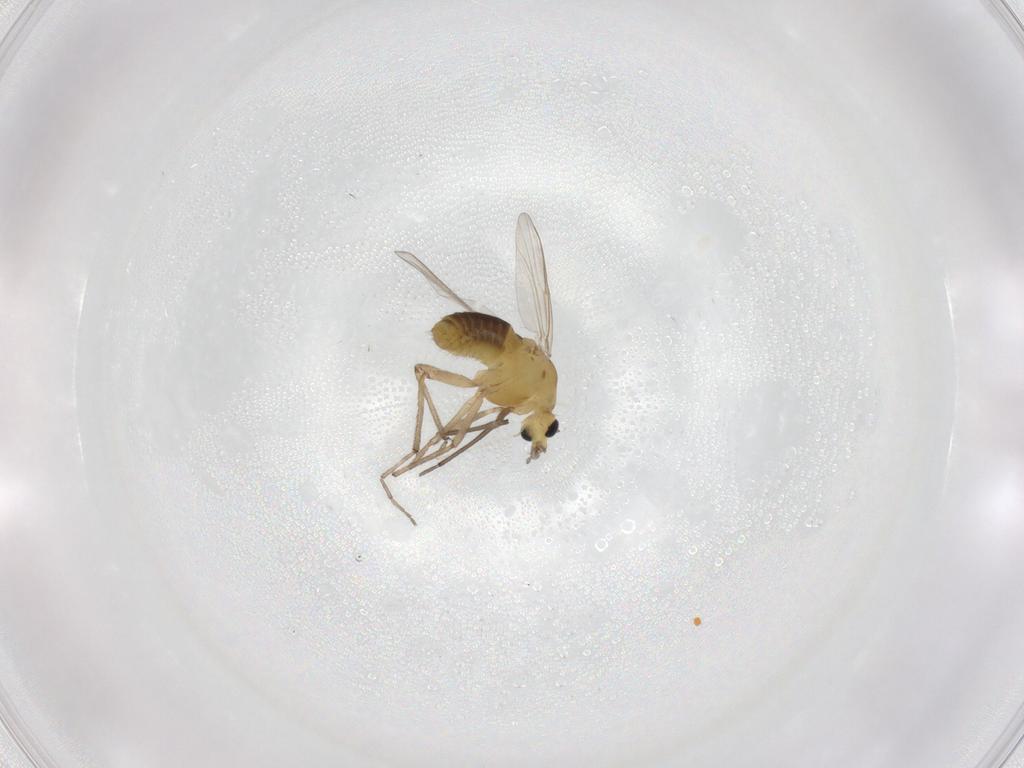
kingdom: Animalia
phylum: Arthropoda
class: Insecta
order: Diptera
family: Chironomidae
